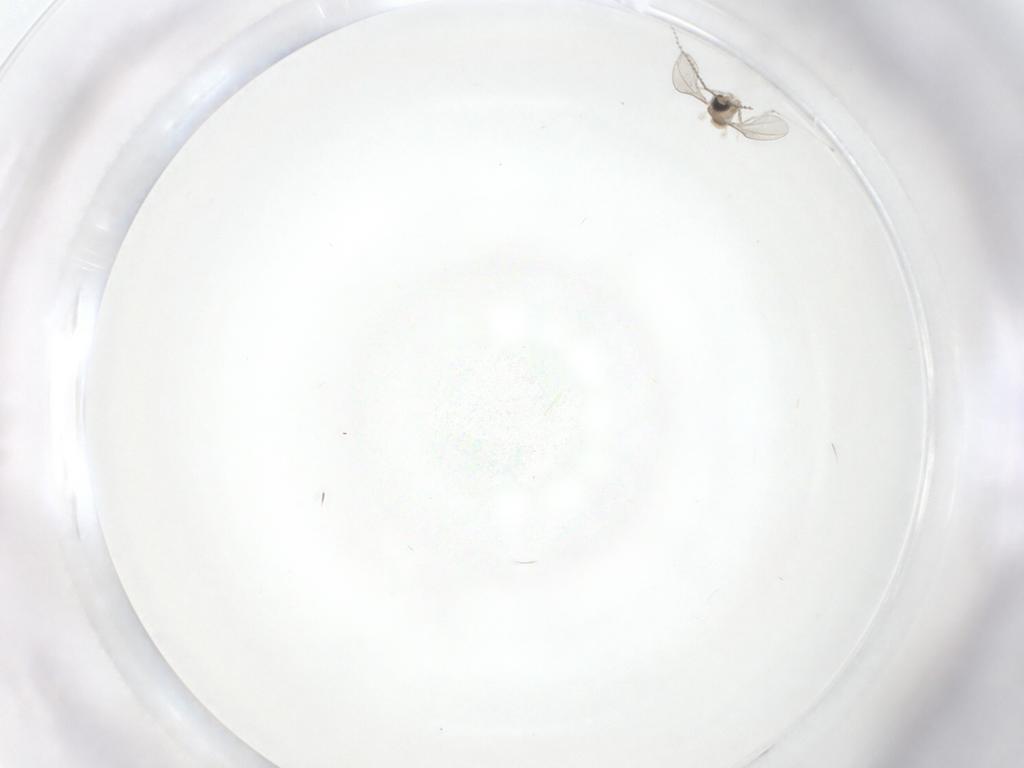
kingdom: Animalia
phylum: Arthropoda
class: Insecta
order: Diptera
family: Cecidomyiidae
